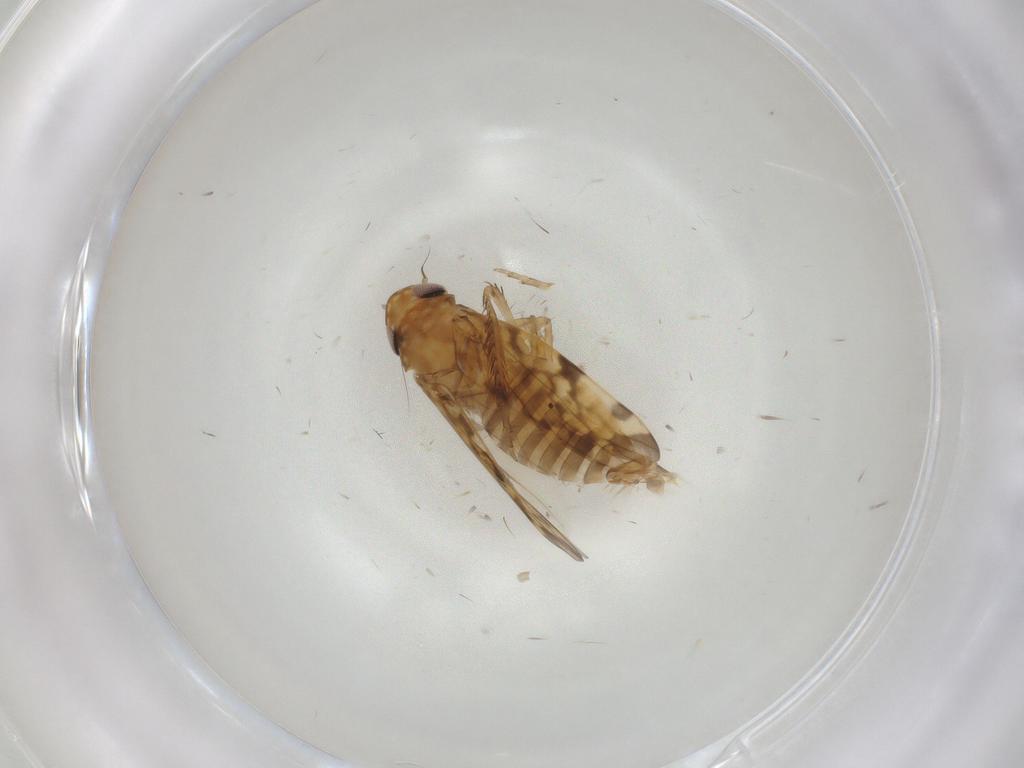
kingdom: Animalia
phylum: Arthropoda
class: Insecta
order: Hemiptera
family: Cicadellidae
